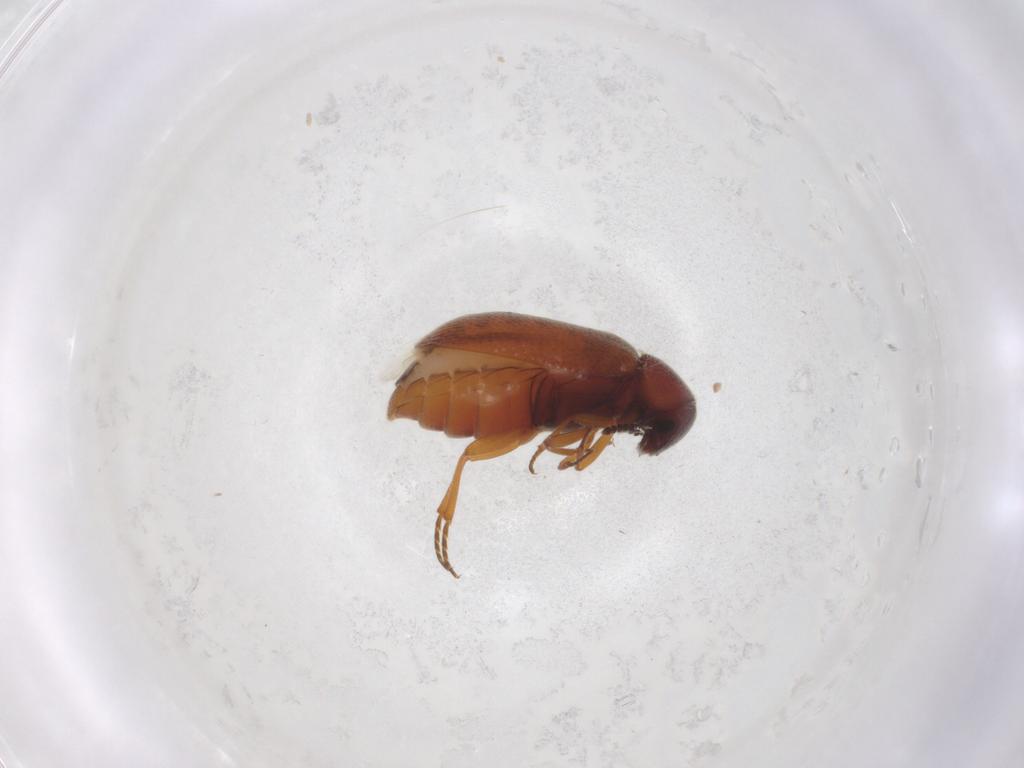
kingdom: Animalia
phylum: Arthropoda
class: Insecta
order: Coleoptera
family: Rhadalidae
